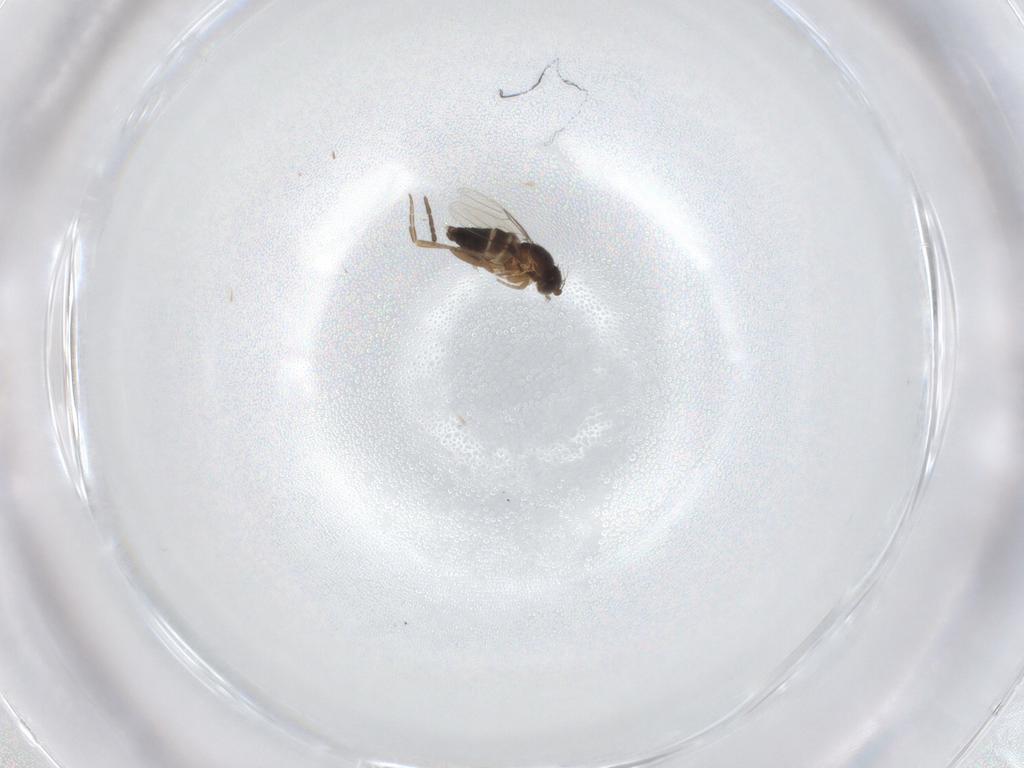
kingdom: Animalia
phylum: Arthropoda
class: Insecta
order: Diptera
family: Phoridae
